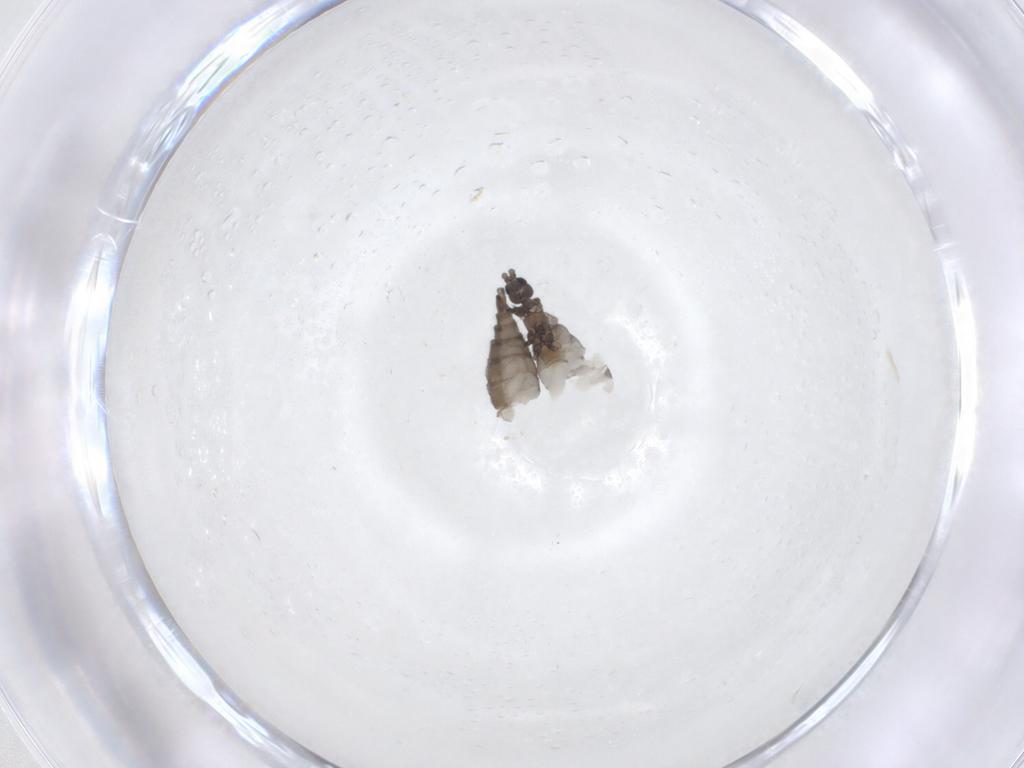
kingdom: Animalia
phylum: Arthropoda
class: Insecta
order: Diptera
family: Sciaridae
